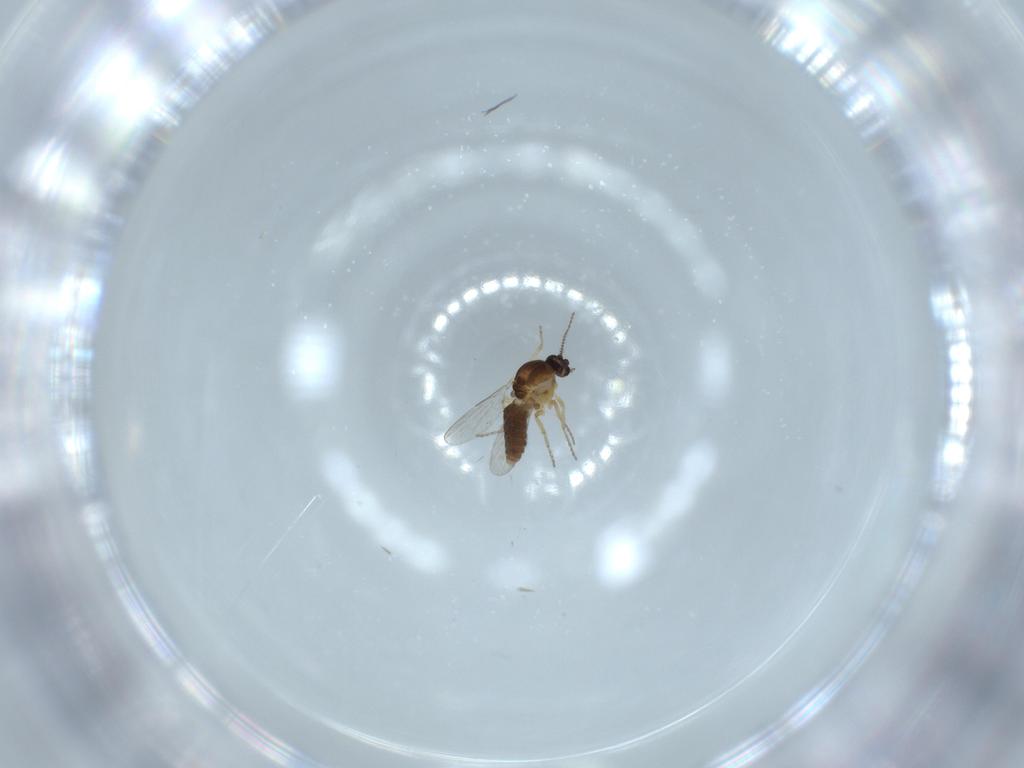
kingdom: Animalia
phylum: Arthropoda
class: Insecta
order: Diptera
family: Ceratopogonidae
